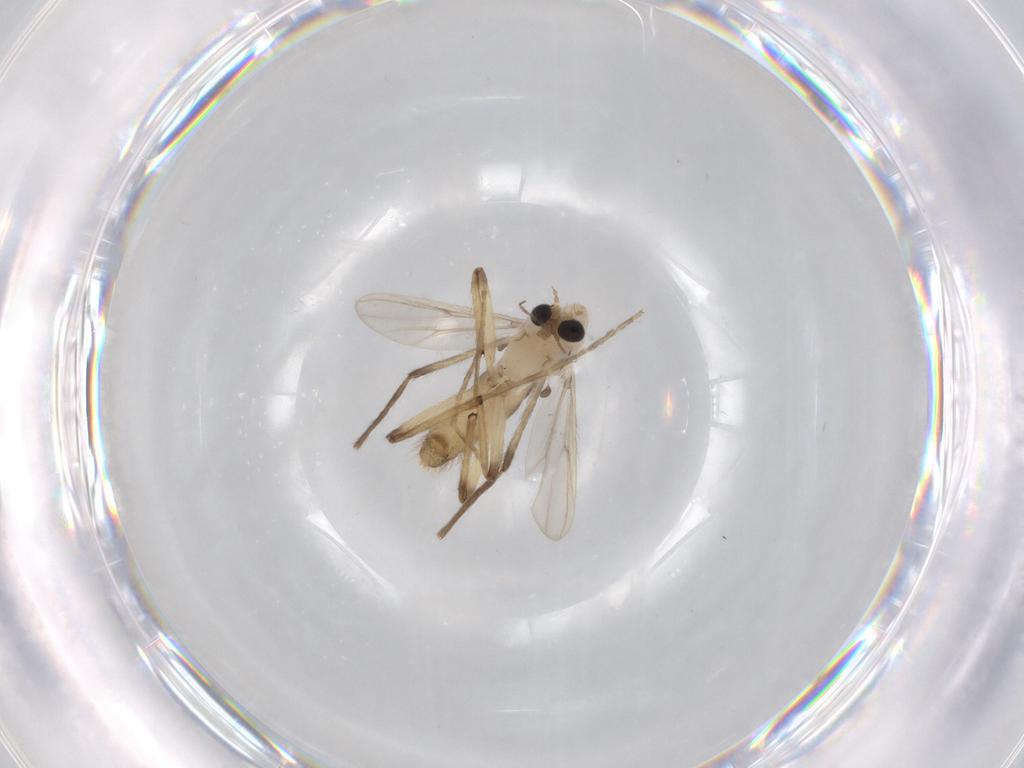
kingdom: Animalia
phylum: Arthropoda
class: Insecta
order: Diptera
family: Chironomidae
